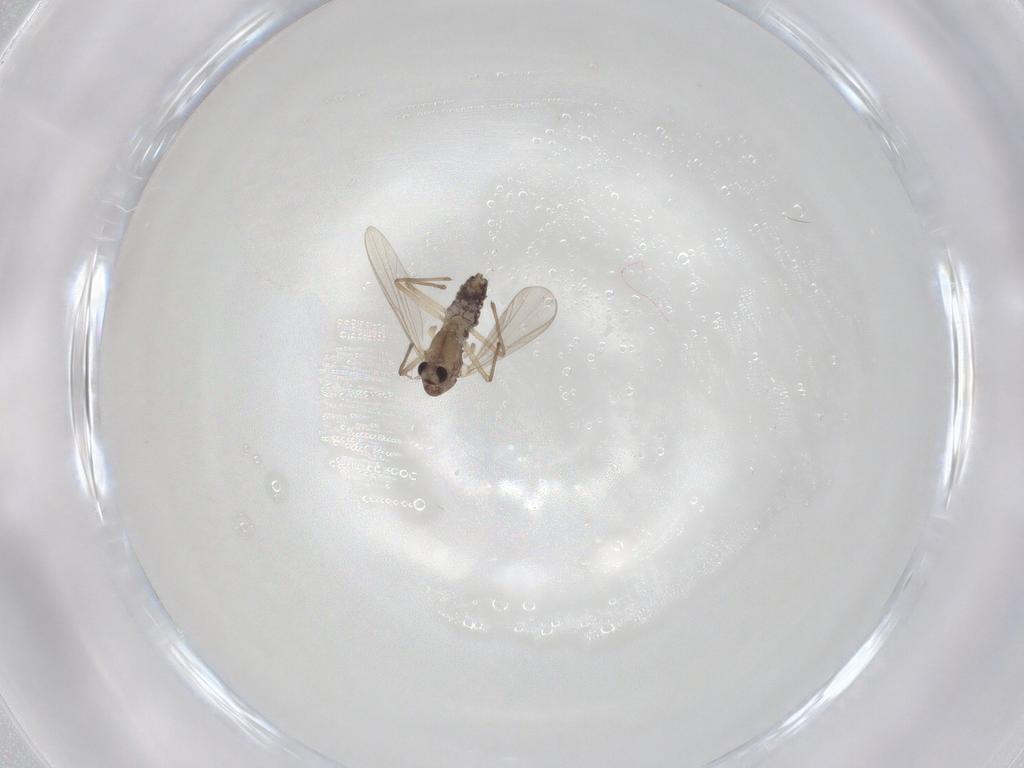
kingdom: Animalia
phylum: Arthropoda
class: Insecta
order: Diptera
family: Chironomidae
